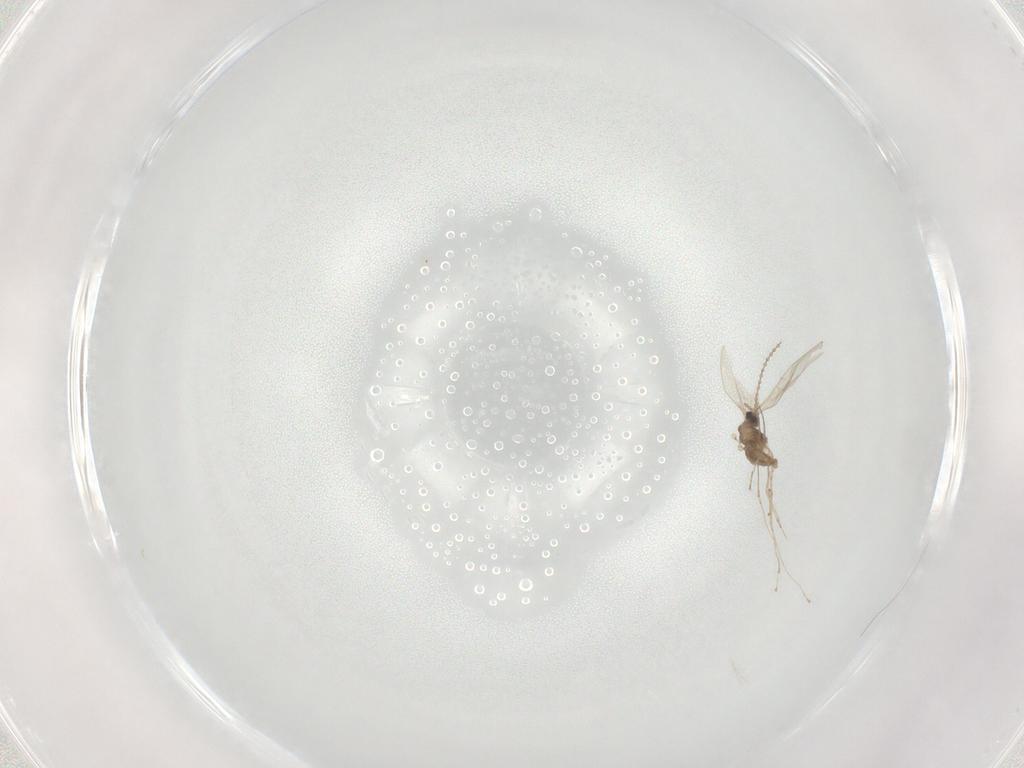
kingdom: Animalia
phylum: Arthropoda
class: Insecta
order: Diptera
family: Cecidomyiidae
